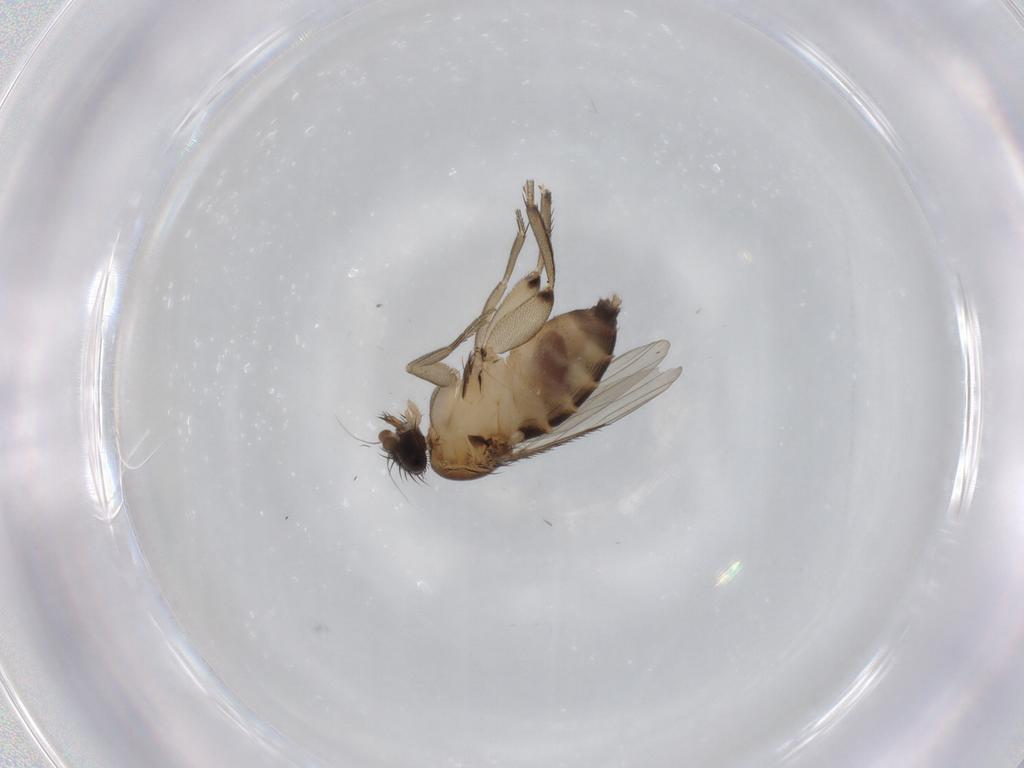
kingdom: Animalia
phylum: Arthropoda
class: Insecta
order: Diptera
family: Phoridae
